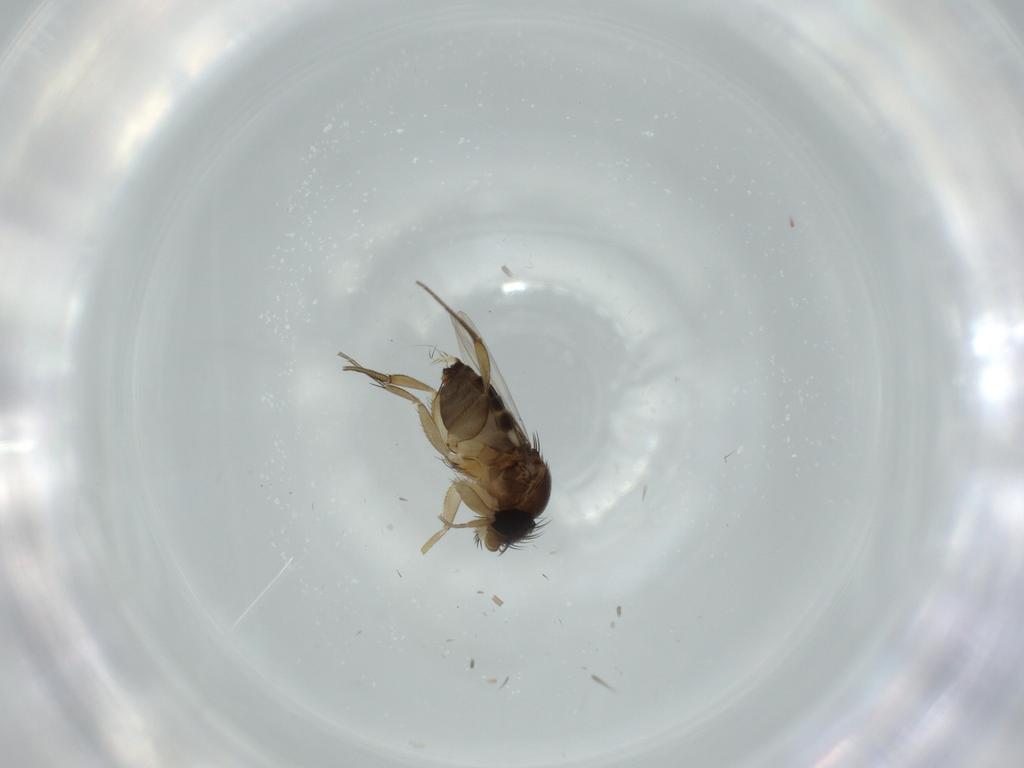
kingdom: Animalia
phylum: Arthropoda
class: Insecta
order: Diptera
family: Phoridae
